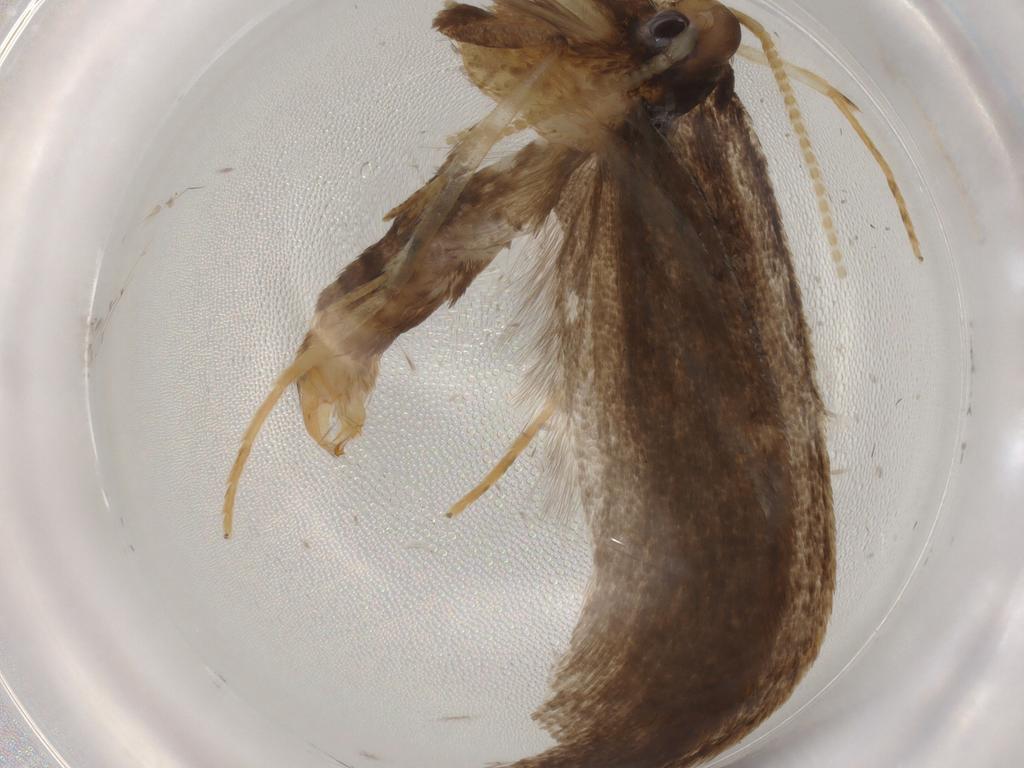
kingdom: Animalia
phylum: Arthropoda
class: Insecta
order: Lepidoptera
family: Lecithoceridae
